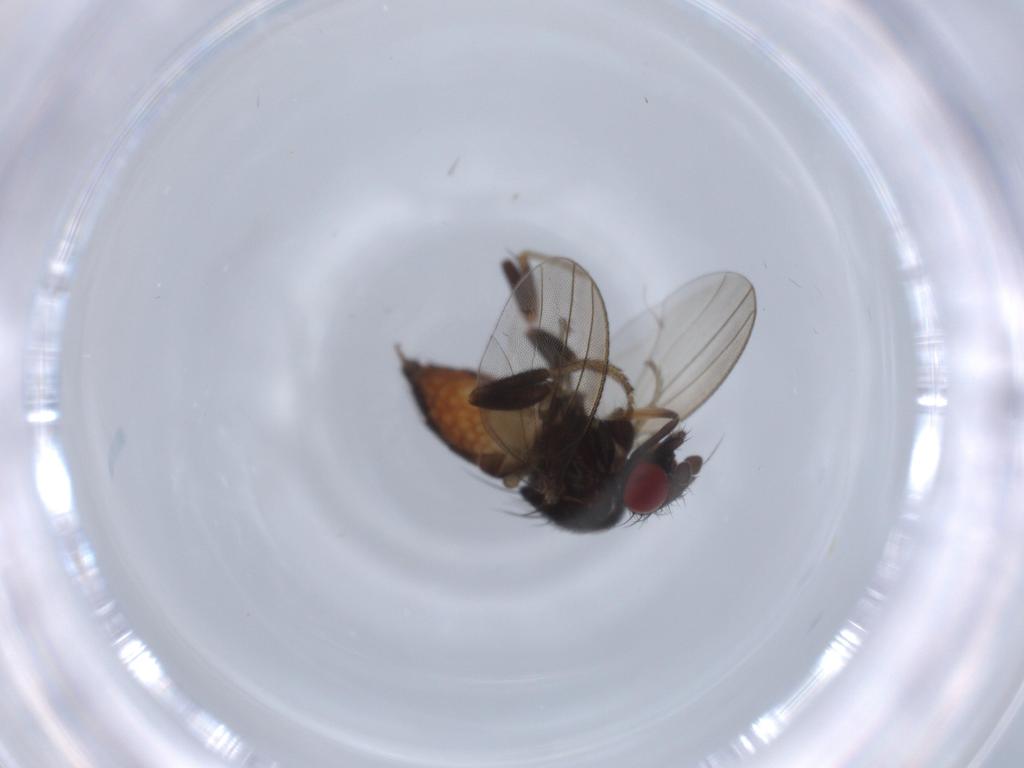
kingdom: Animalia
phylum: Arthropoda
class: Insecta
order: Diptera
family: Milichiidae
